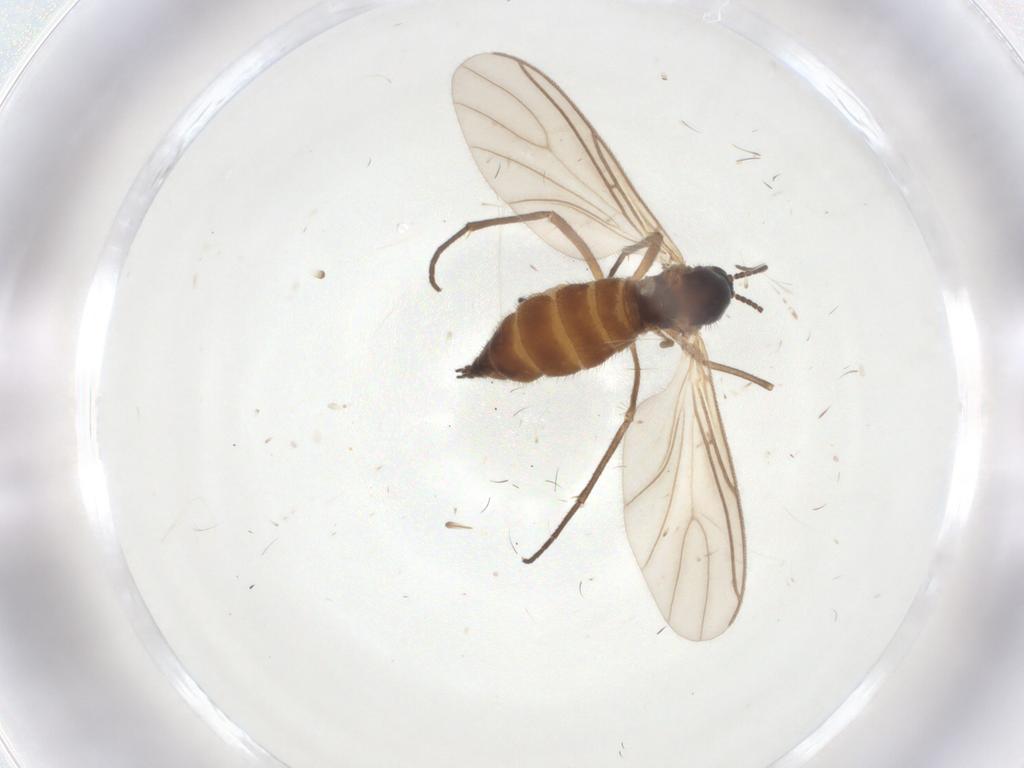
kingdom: Animalia
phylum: Arthropoda
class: Insecta
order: Diptera
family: Sciaridae
